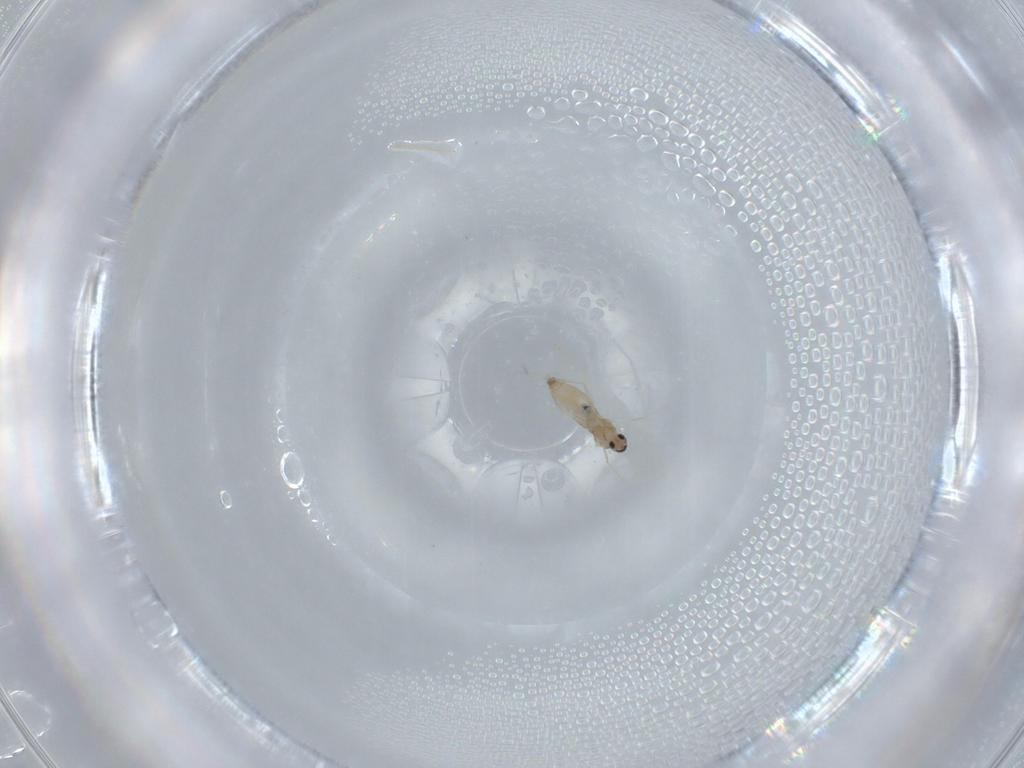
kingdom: Animalia
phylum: Arthropoda
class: Insecta
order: Diptera
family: Cecidomyiidae
